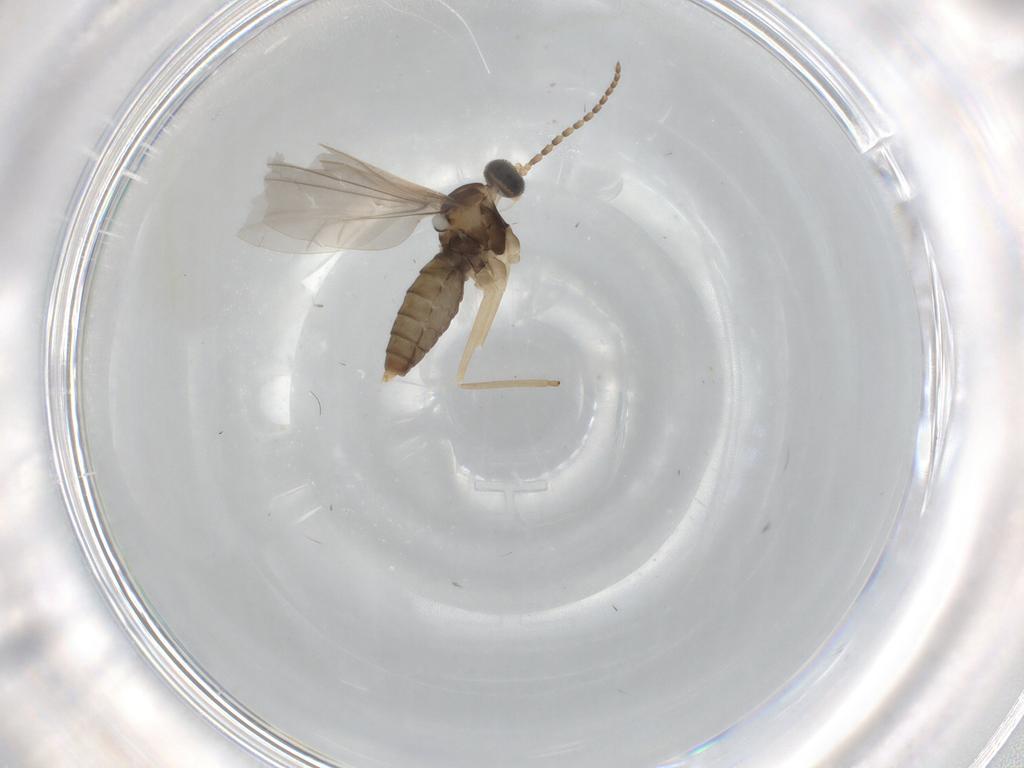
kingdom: Animalia
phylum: Arthropoda
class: Insecta
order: Diptera
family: Cecidomyiidae
